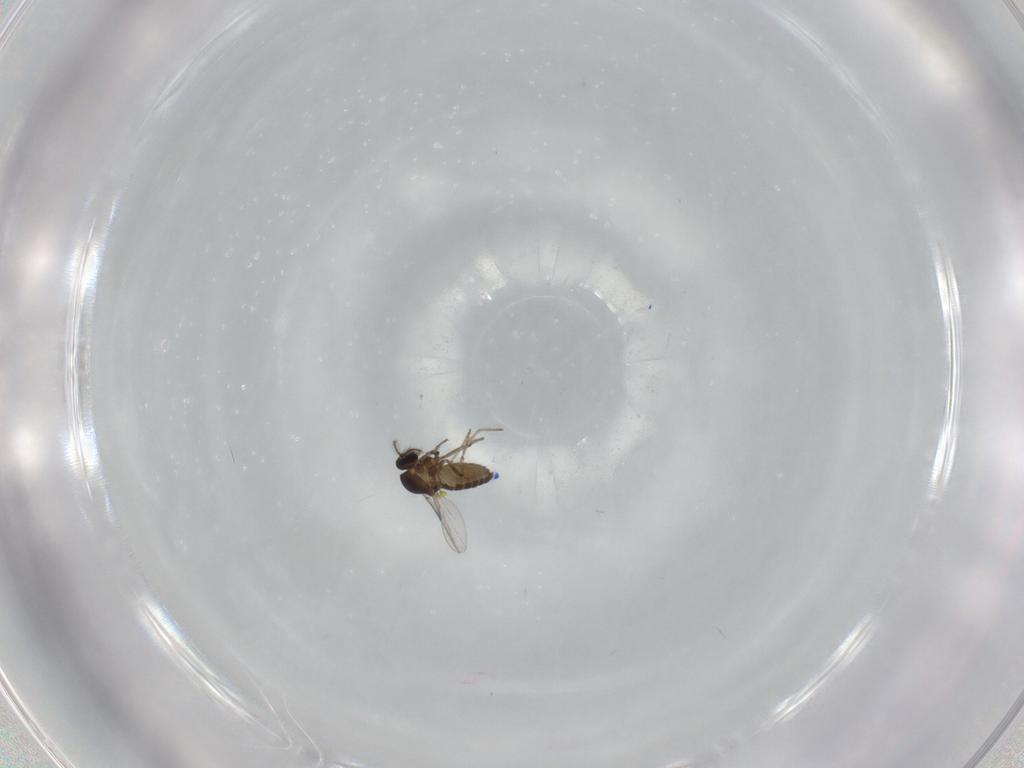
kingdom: Animalia
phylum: Arthropoda
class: Insecta
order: Diptera
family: Ceratopogonidae
